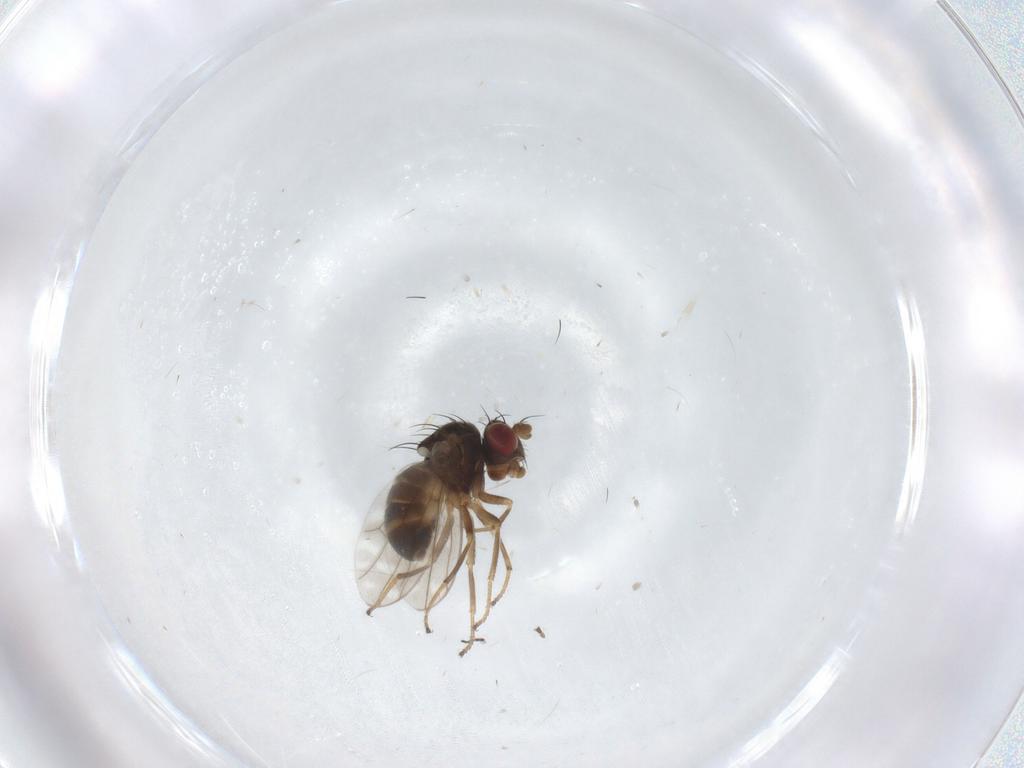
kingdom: Animalia
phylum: Arthropoda
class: Insecta
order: Diptera
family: Ephydridae
